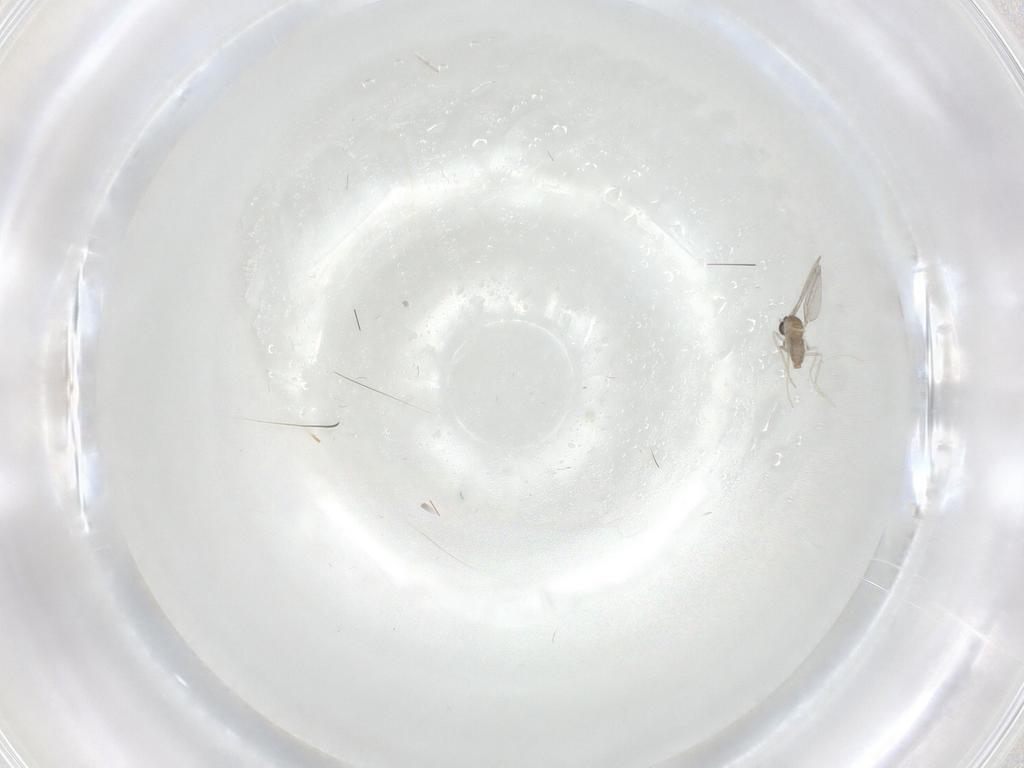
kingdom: Animalia
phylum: Arthropoda
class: Insecta
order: Diptera
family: Cecidomyiidae
